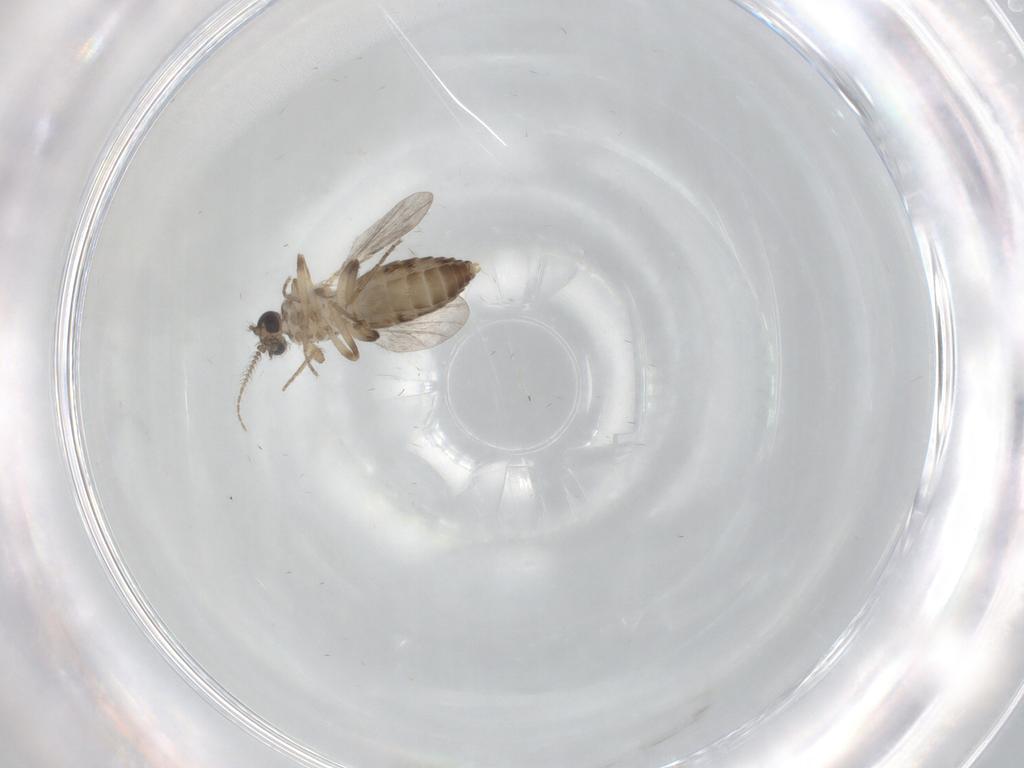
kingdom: Animalia
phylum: Arthropoda
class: Insecta
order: Diptera
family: Ceratopogonidae
